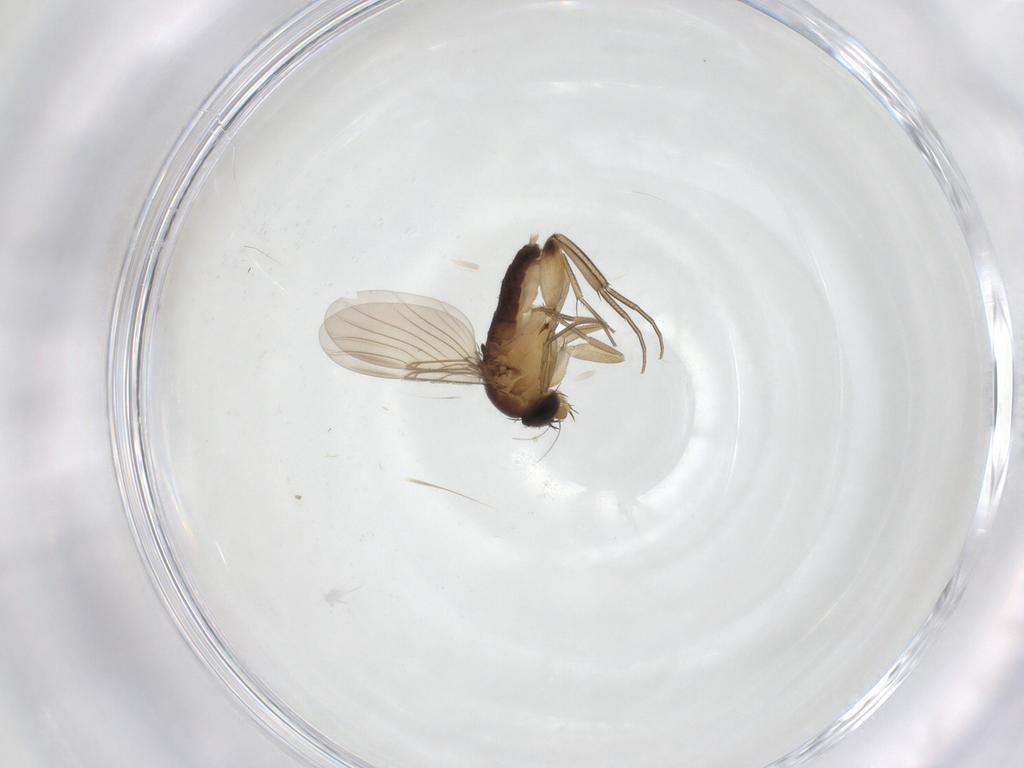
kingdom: Animalia
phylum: Arthropoda
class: Insecta
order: Diptera
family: Phoridae
